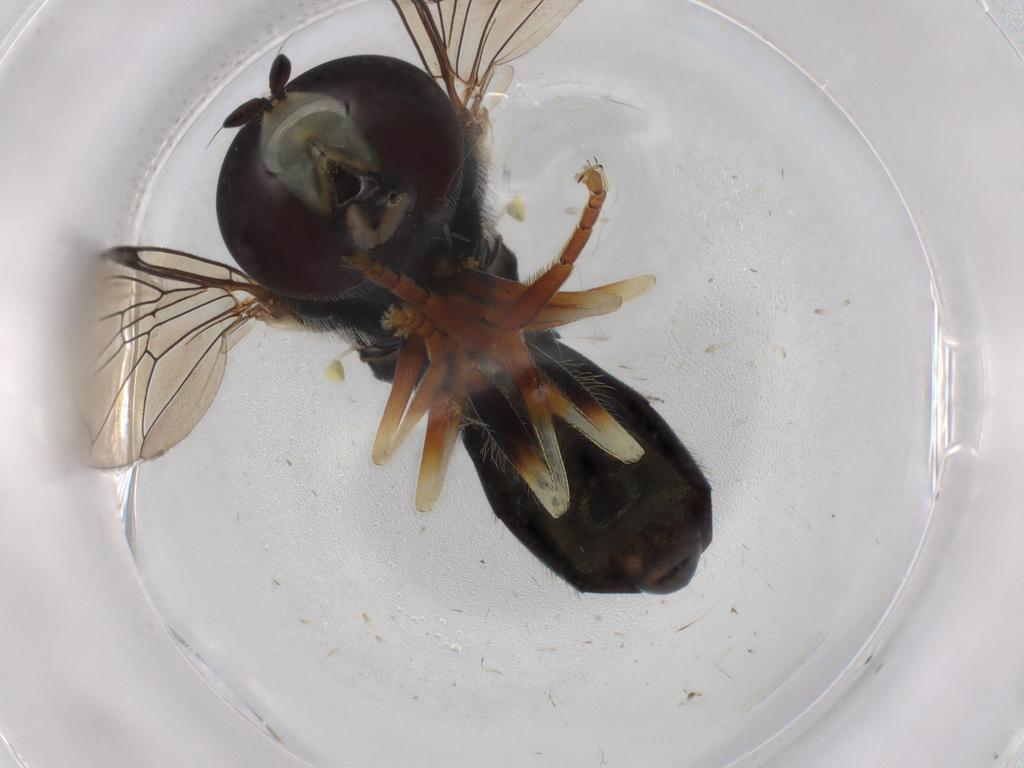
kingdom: Animalia
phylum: Arthropoda
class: Insecta
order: Diptera
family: Syrphidae
